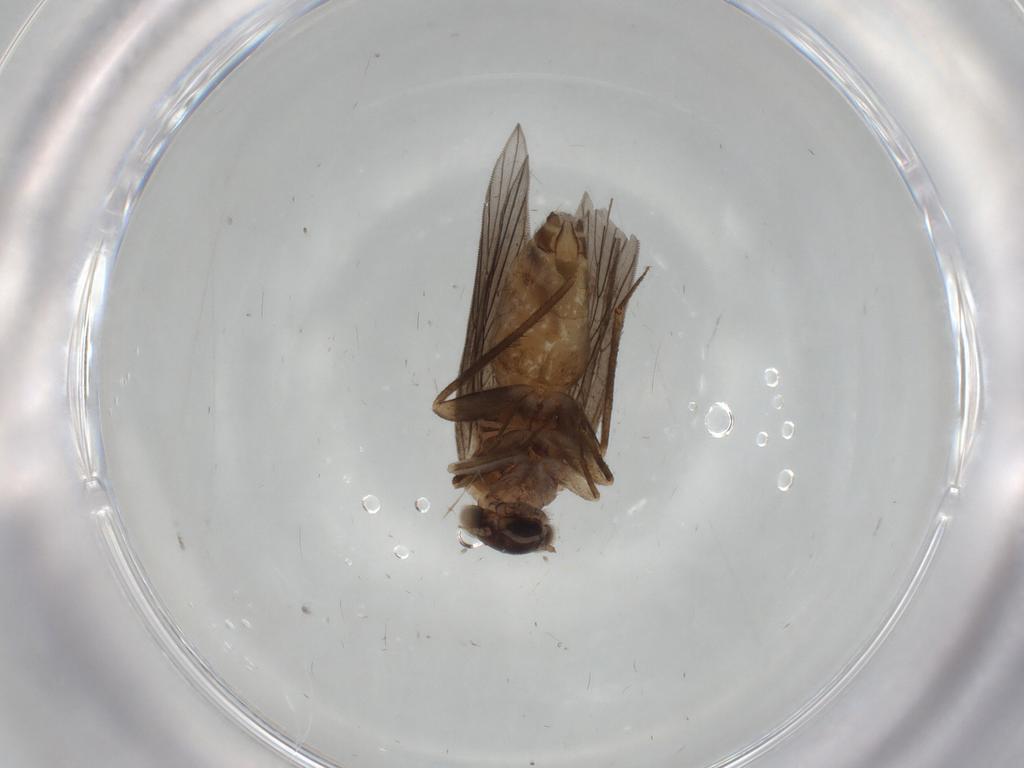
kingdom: Animalia
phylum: Arthropoda
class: Insecta
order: Psocodea
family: Lepidopsocidae
